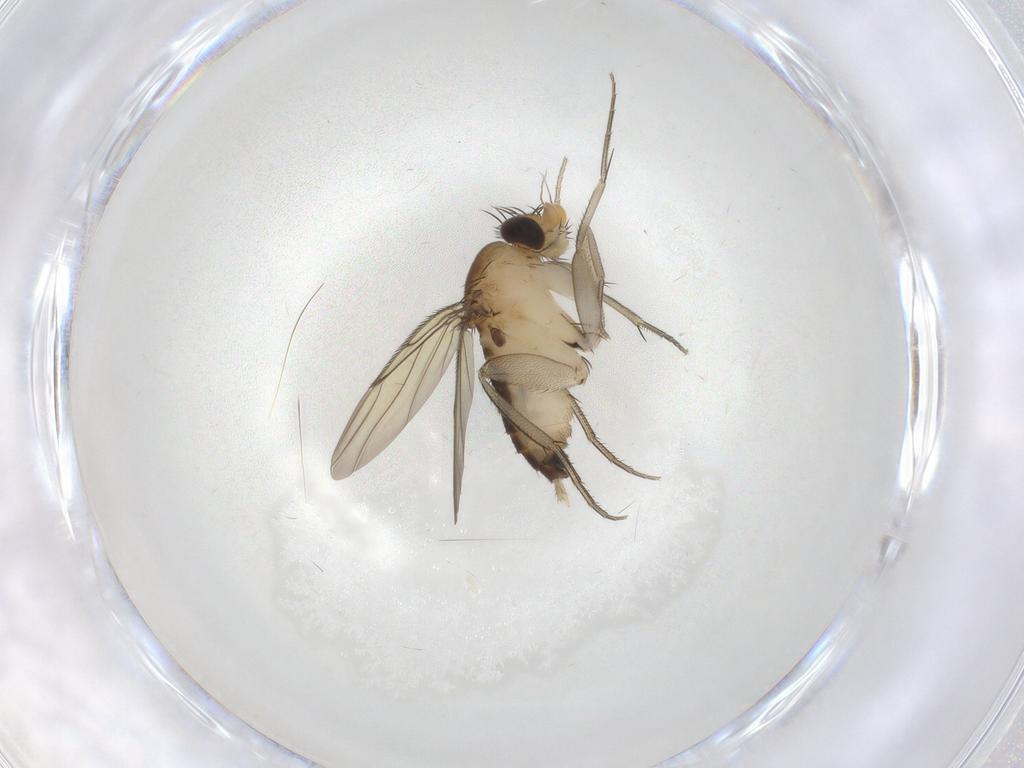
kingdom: Animalia
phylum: Arthropoda
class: Insecta
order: Diptera
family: Phoridae
